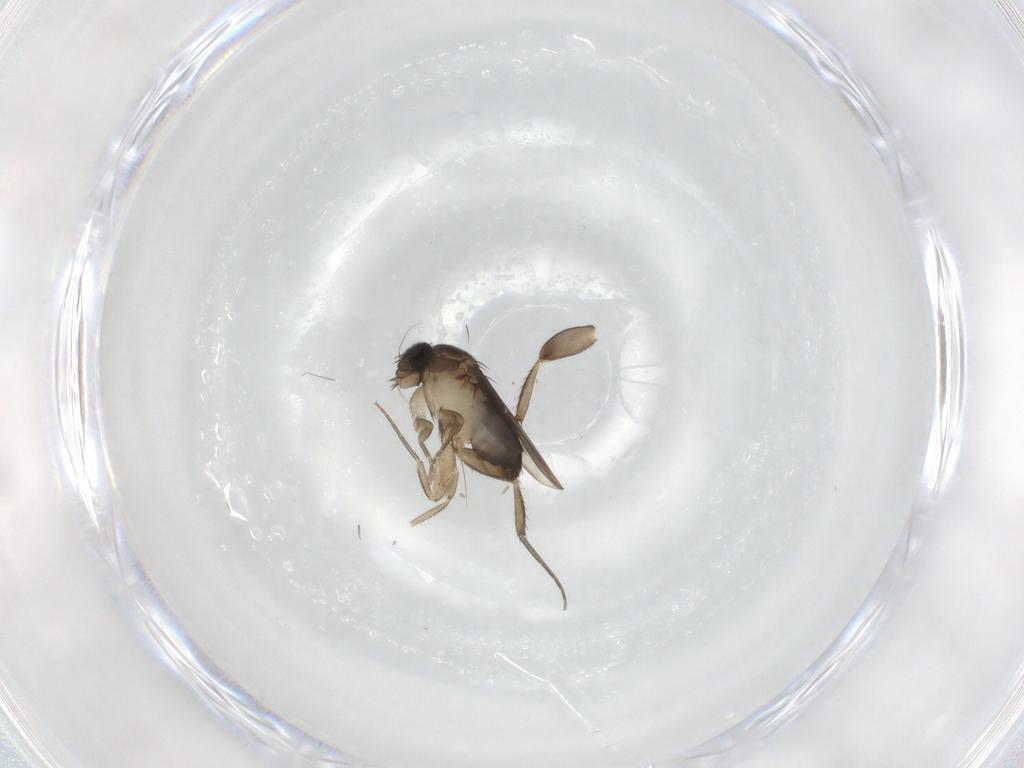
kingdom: Animalia
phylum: Arthropoda
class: Insecta
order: Diptera
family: Phoridae
